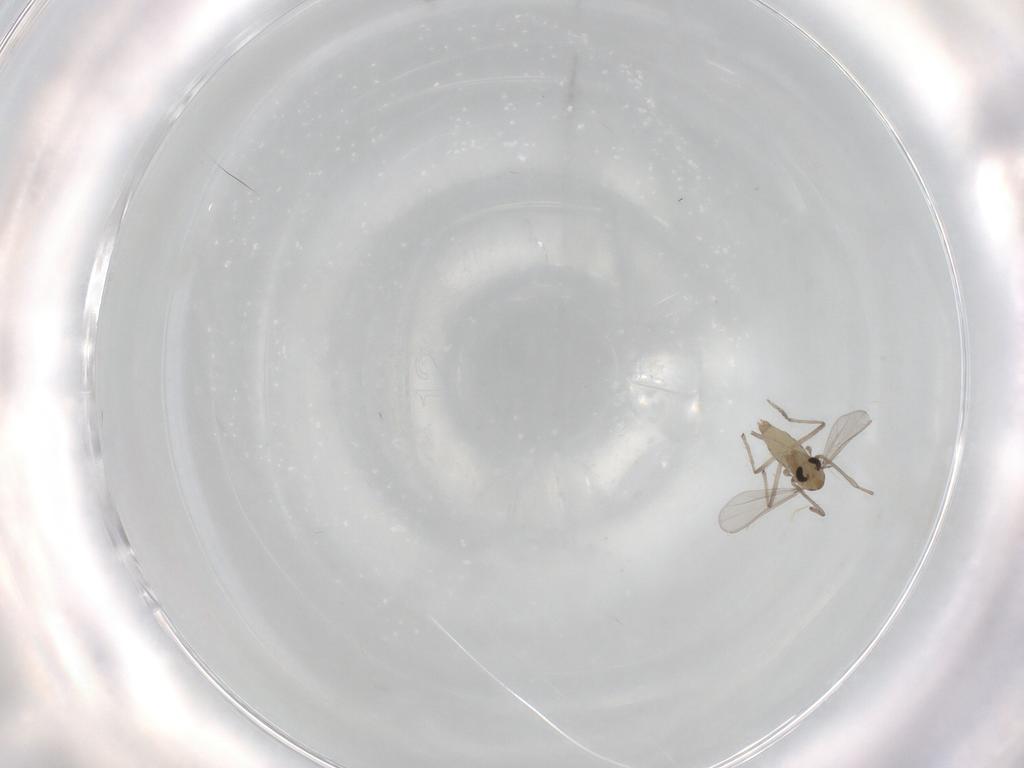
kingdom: Animalia
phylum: Arthropoda
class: Insecta
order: Diptera
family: Chironomidae
